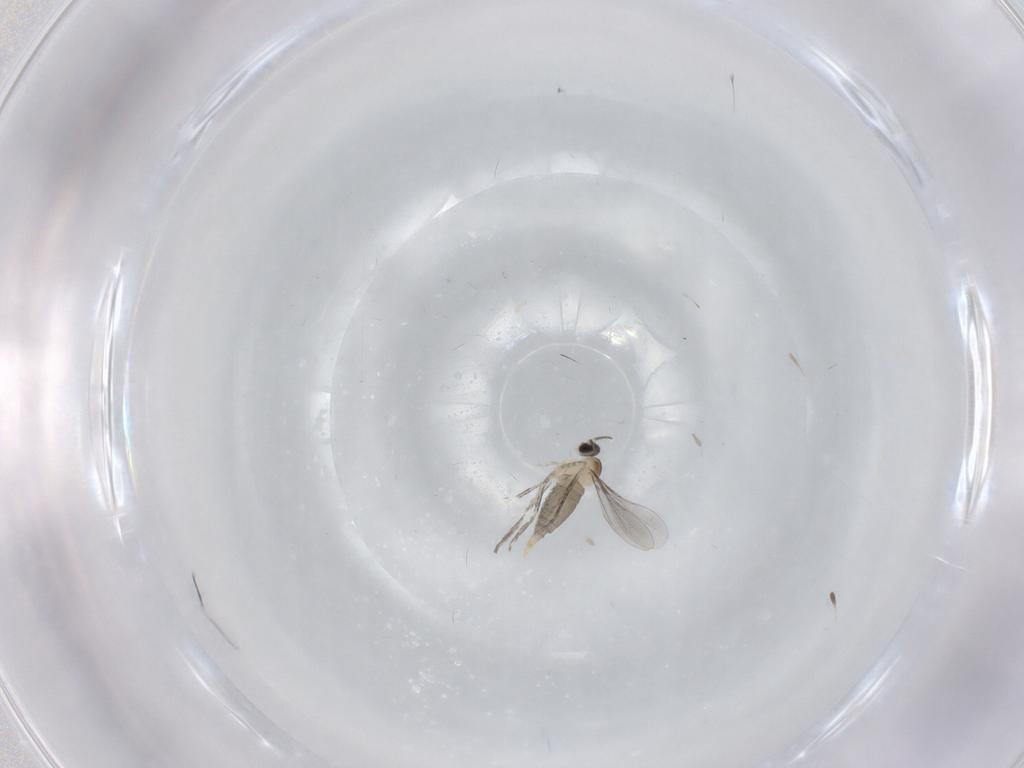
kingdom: Animalia
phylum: Arthropoda
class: Insecta
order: Diptera
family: Cecidomyiidae
